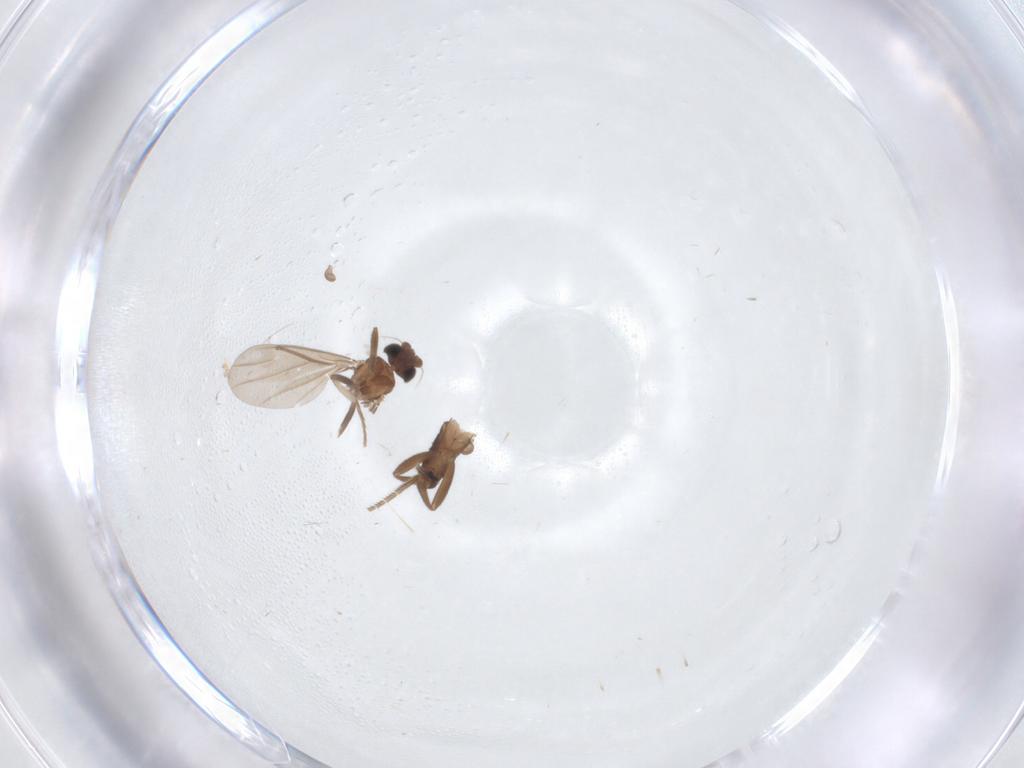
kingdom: Animalia
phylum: Arthropoda
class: Insecta
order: Diptera
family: Phoridae
